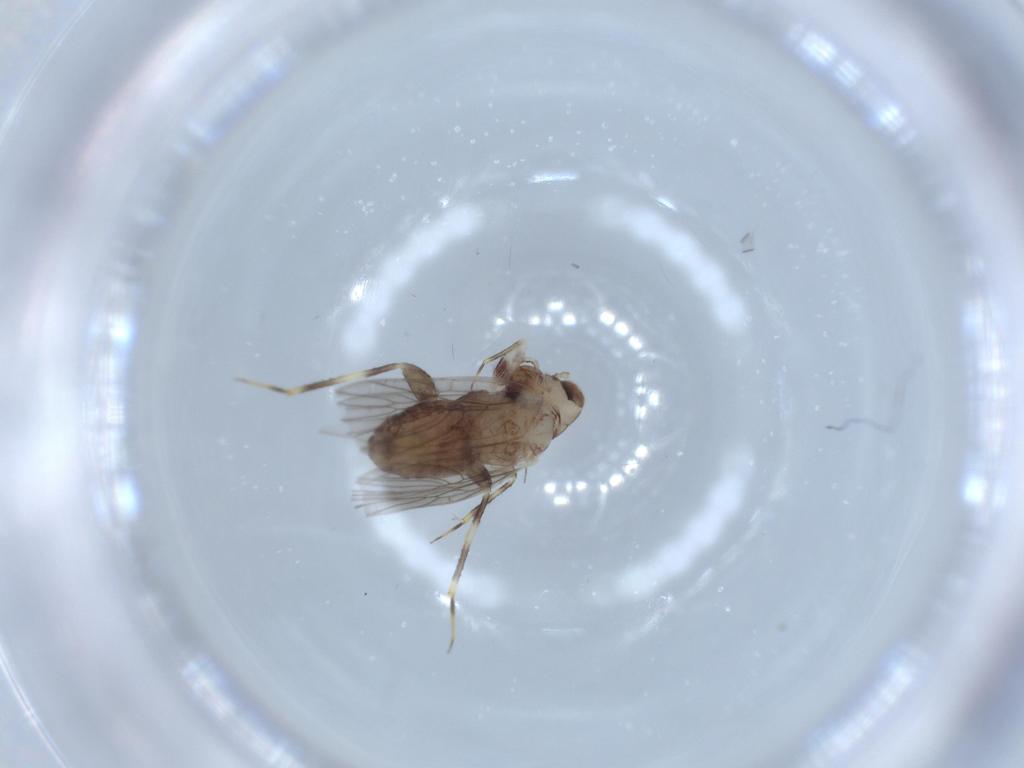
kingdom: Animalia
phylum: Arthropoda
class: Insecta
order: Psocodea
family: Lepidopsocidae
